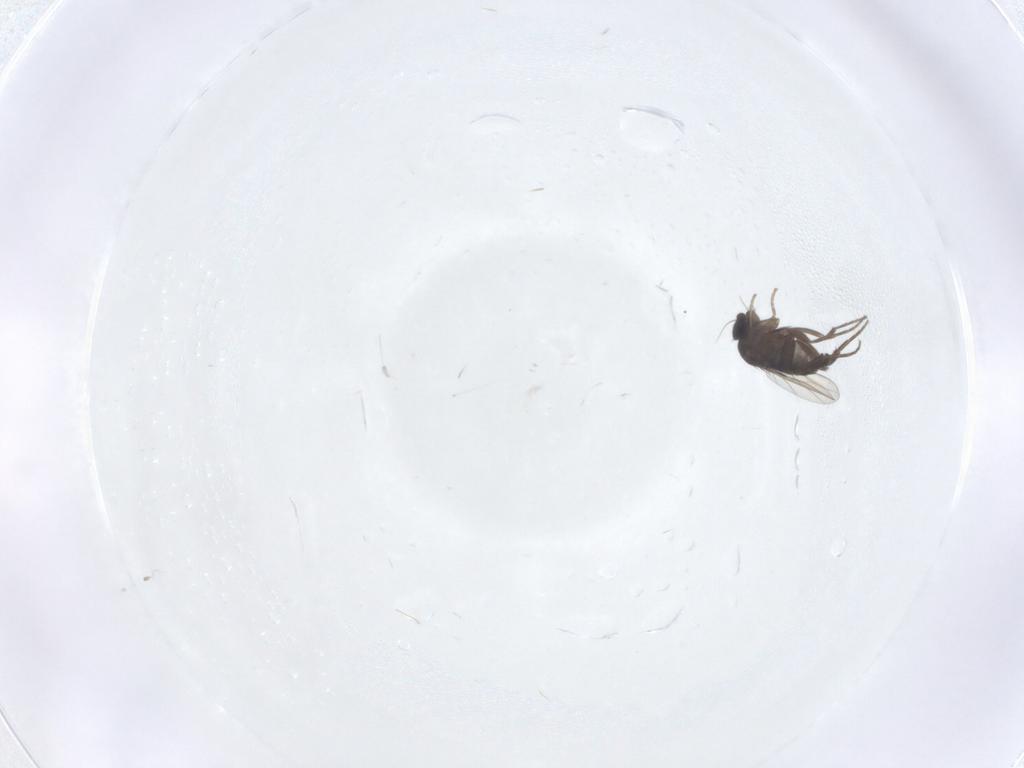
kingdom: Animalia
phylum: Arthropoda
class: Insecta
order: Diptera
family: Phoridae
